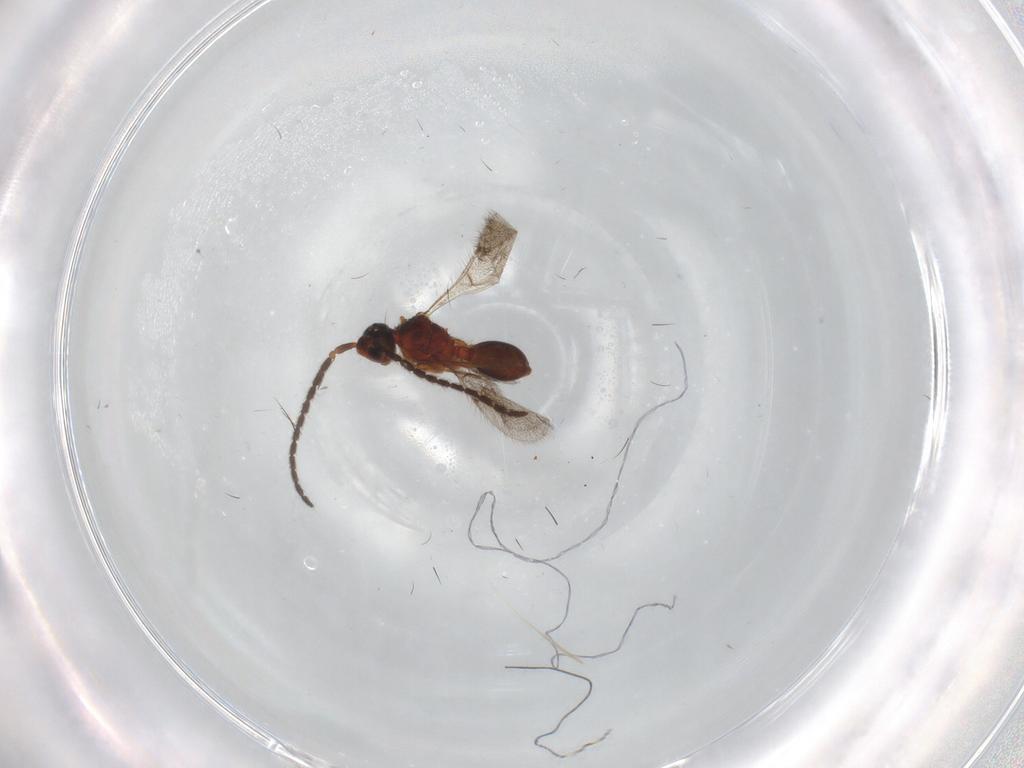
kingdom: Animalia
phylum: Arthropoda
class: Insecta
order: Hymenoptera
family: Diapriidae
